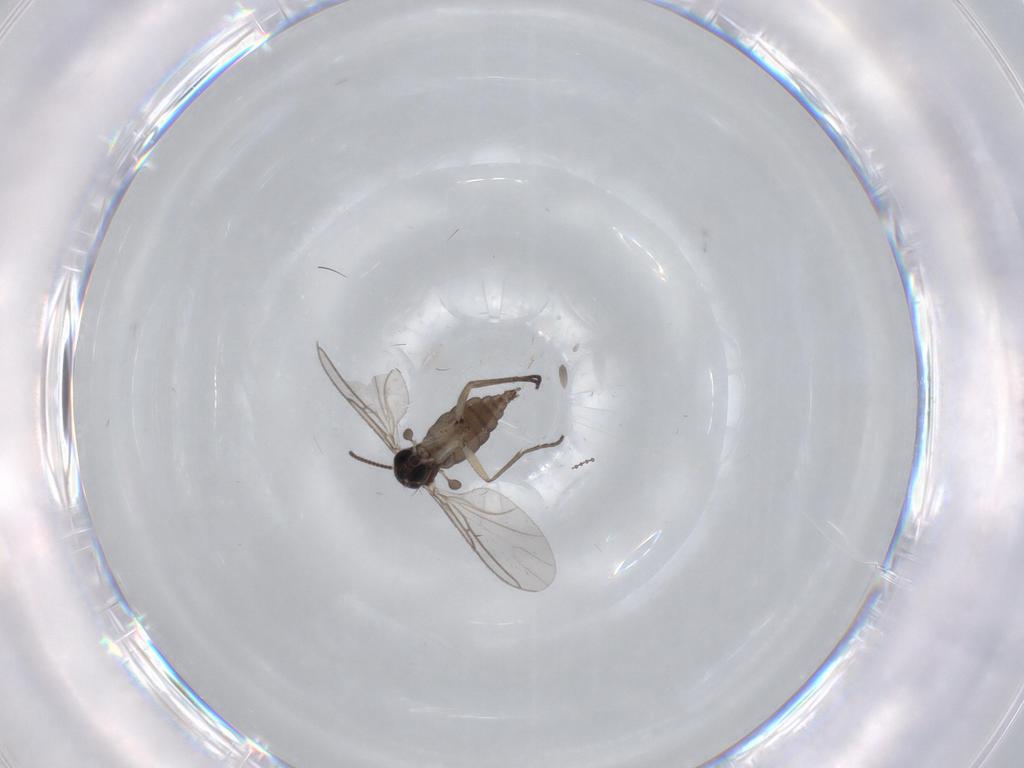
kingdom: Animalia
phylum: Arthropoda
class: Insecta
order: Diptera
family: Sciaridae
